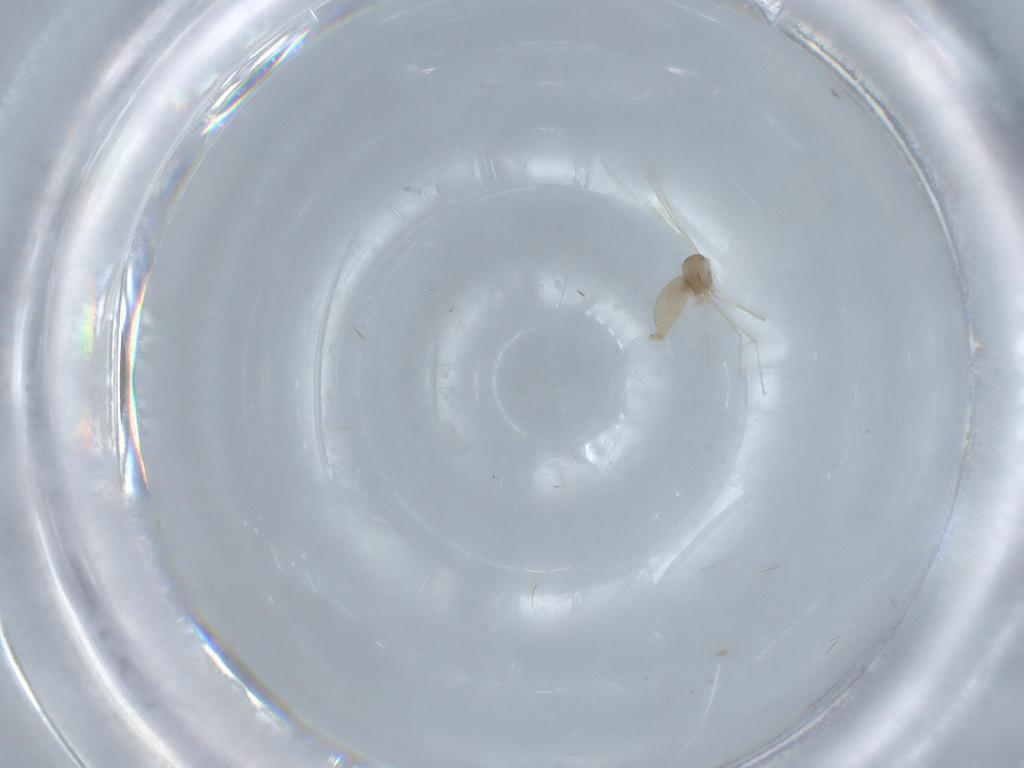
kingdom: Animalia
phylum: Arthropoda
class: Insecta
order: Diptera
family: Cecidomyiidae
